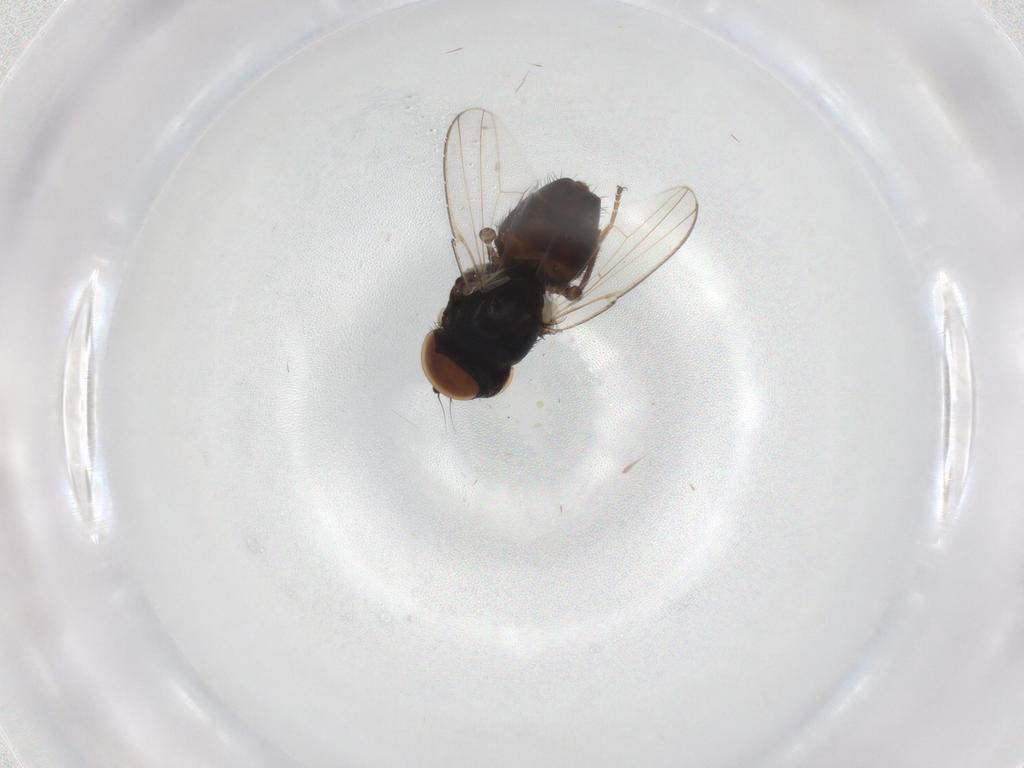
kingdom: Animalia
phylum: Arthropoda
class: Insecta
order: Diptera
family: Milichiidae
